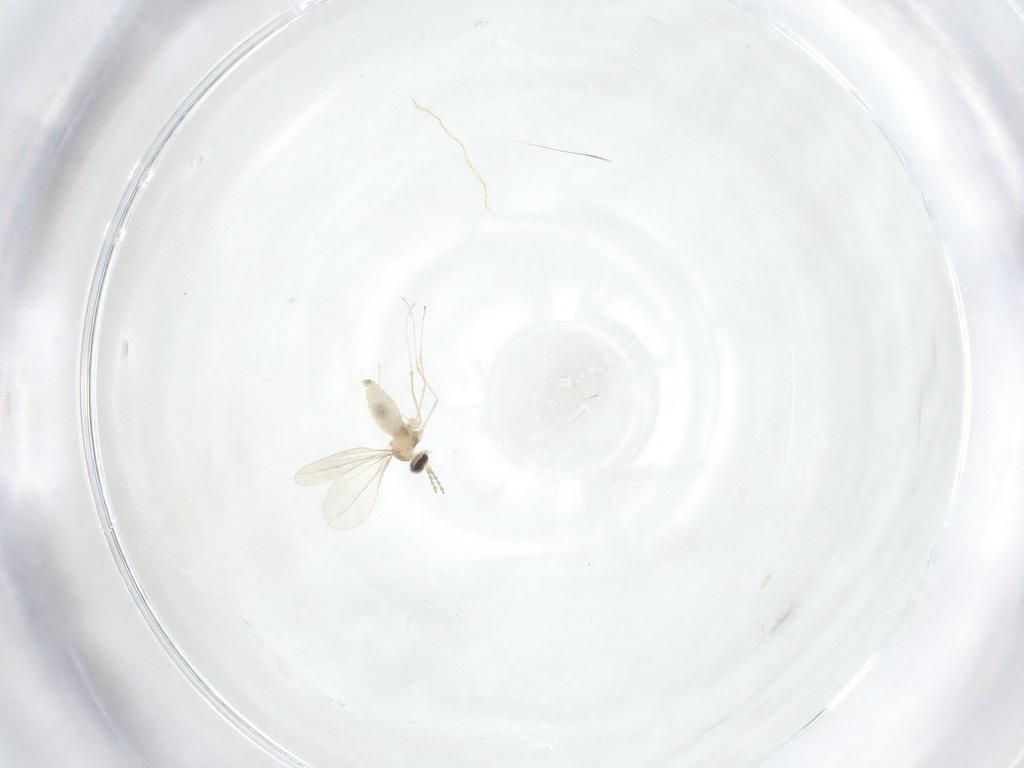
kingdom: Animalia
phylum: Arthropoda
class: Insecta
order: Diptera
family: Cecidomyiidae
